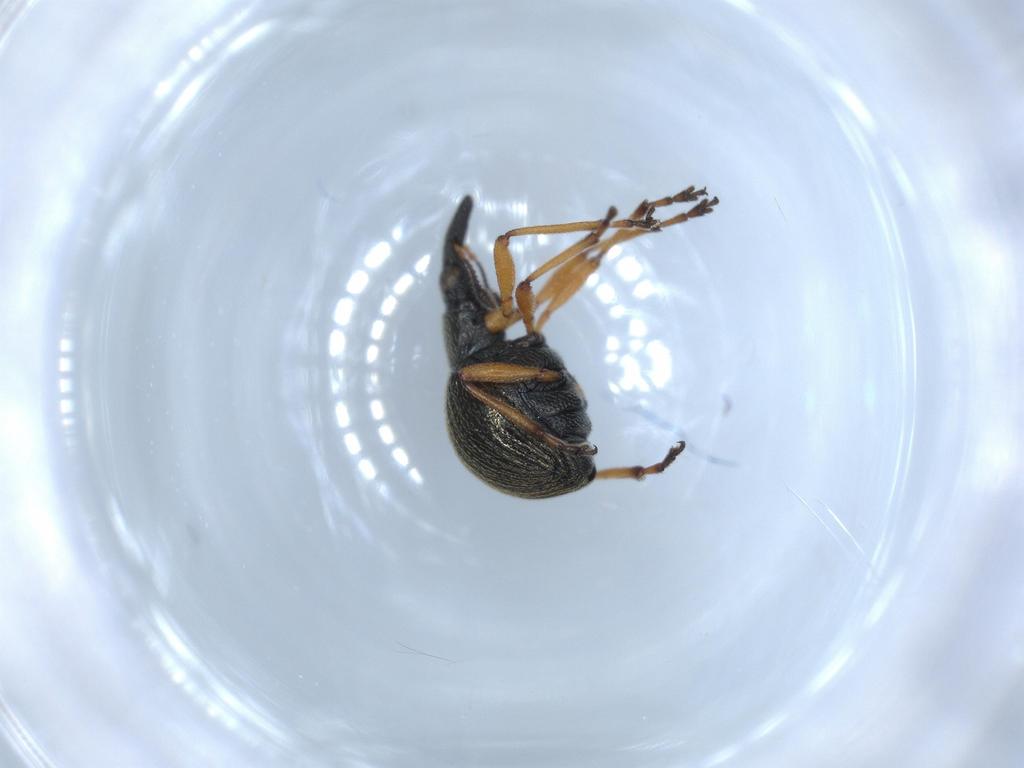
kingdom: Animalia
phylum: Arthropoda
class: Insecta
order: Coleoptera
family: Brentidae
